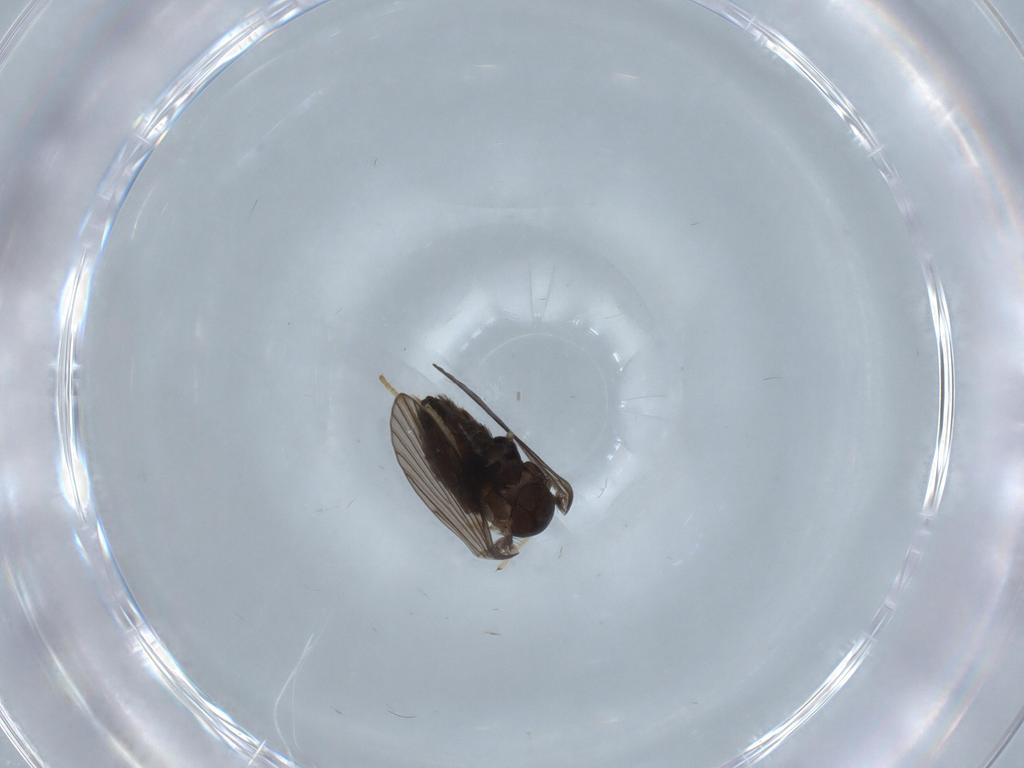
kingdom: Animalia
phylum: Arthropoda
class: Insecta
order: Diptera
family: Psychodidae
